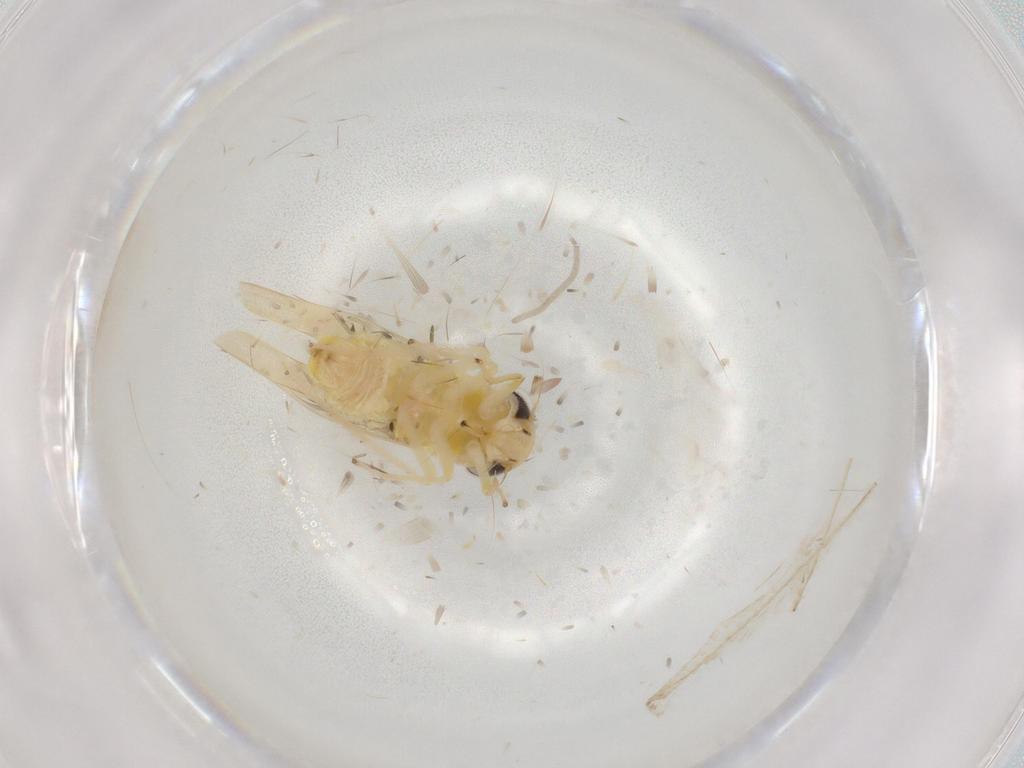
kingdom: Animalia
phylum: Arthropoda
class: Insecta
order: Hemiptera
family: Cicadellidae
